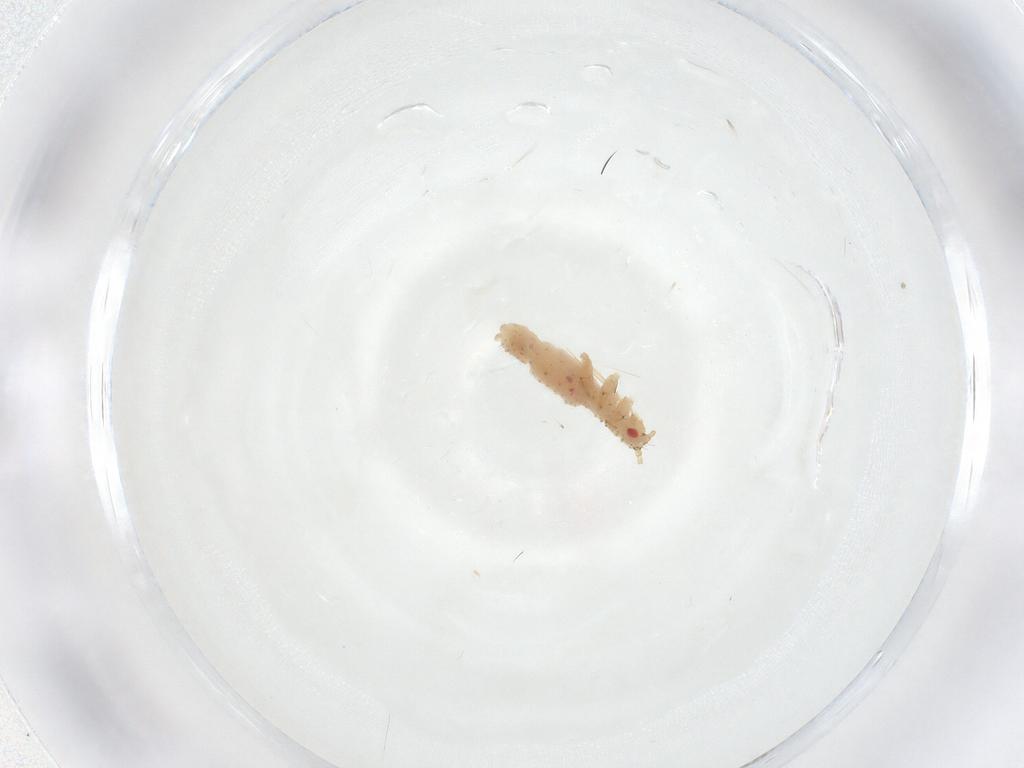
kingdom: Animalia
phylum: Arthropoda
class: Insecta
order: Hemiptera
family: Aphididae
